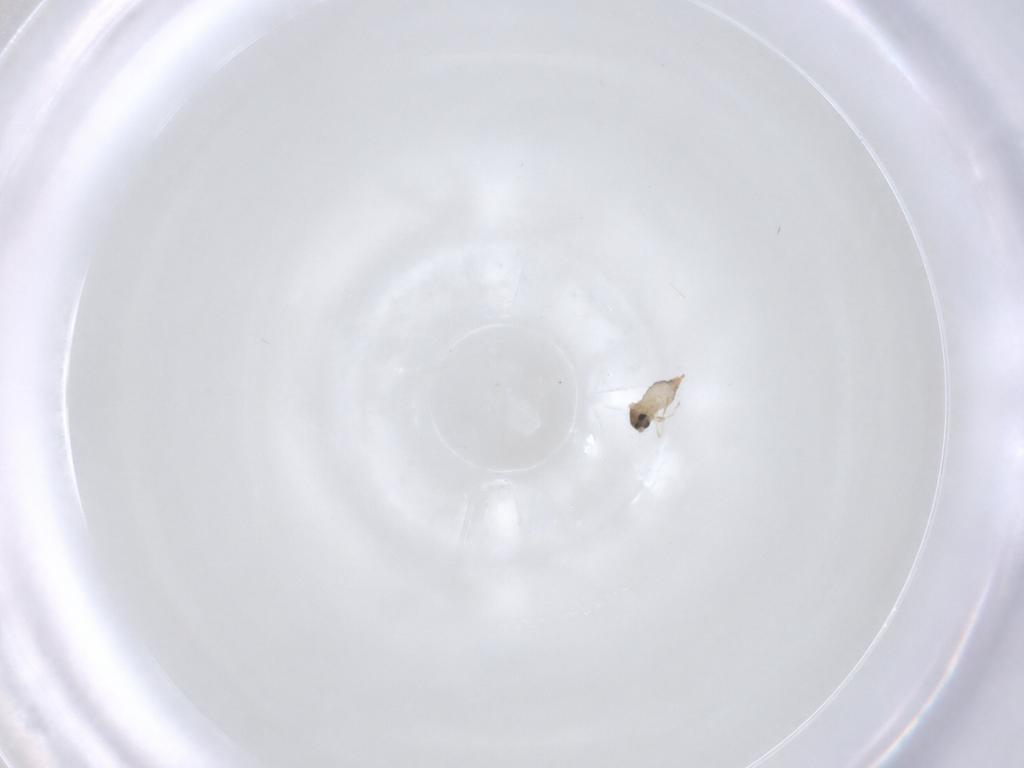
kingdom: Animalia
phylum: Arthropoda
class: Insecta
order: Diptera
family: Cecidomyiidae
